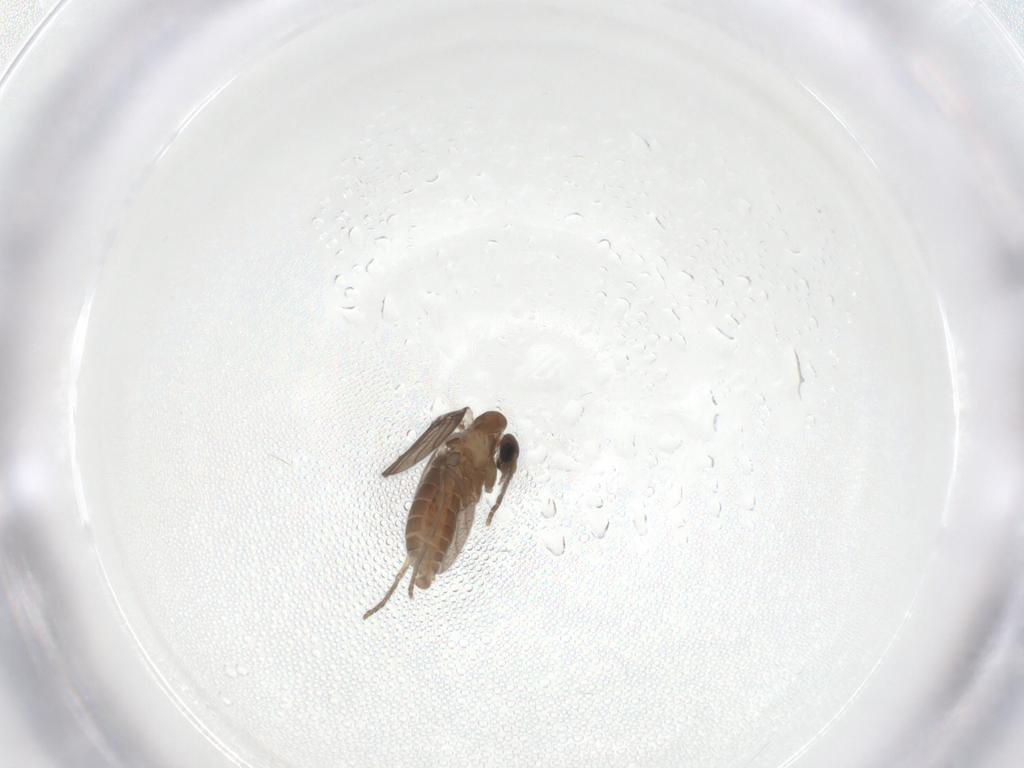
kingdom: Animalia
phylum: Arthropoda
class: Insecta
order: Diptera
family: Psychodidae
